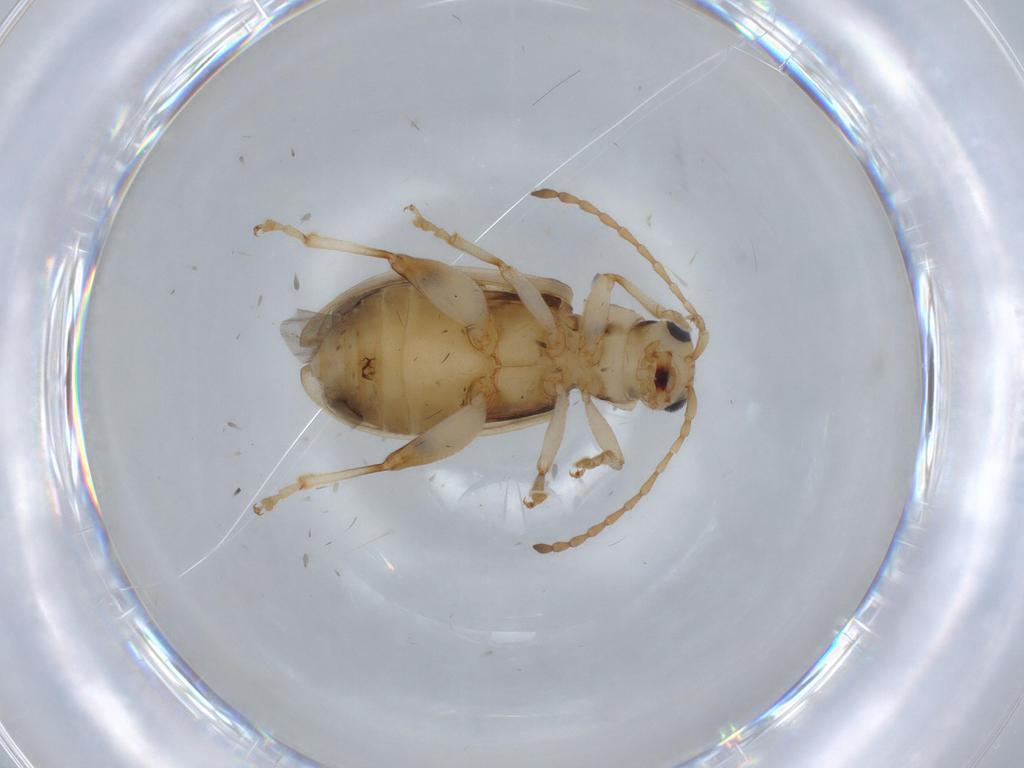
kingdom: Animalia
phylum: Arthropoda
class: Insecta
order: Coleoptera
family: Chrysomelidae
